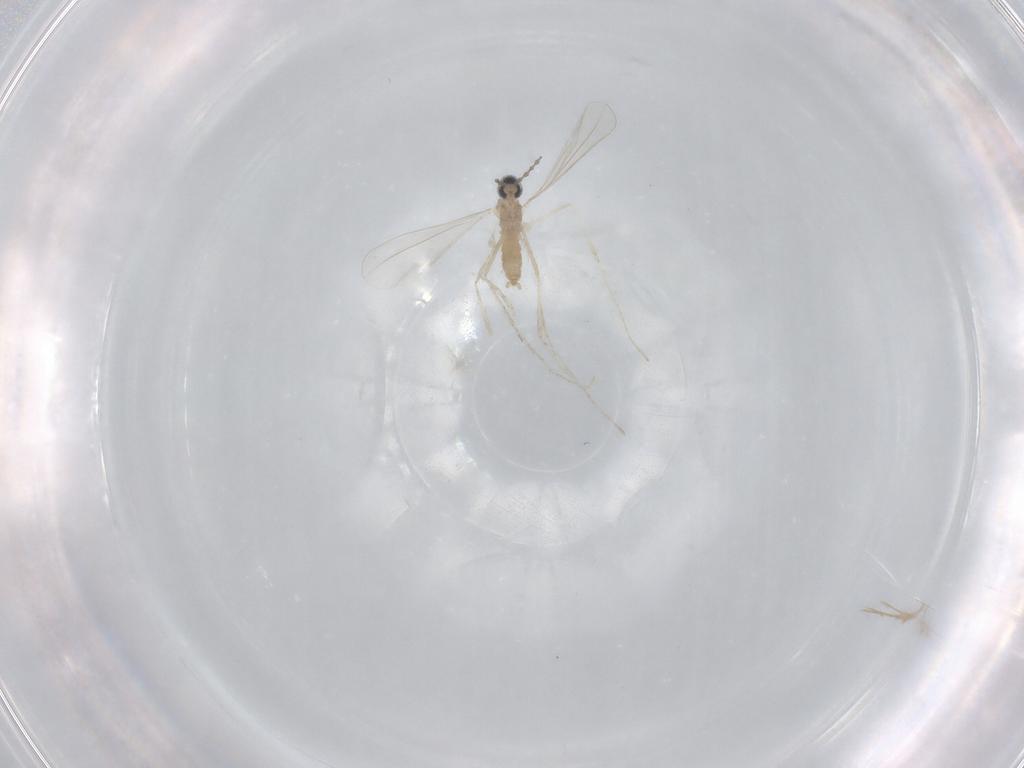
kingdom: Animalia
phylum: Arthropoda
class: Insecta
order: Diptera
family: Cecidomyiidae
